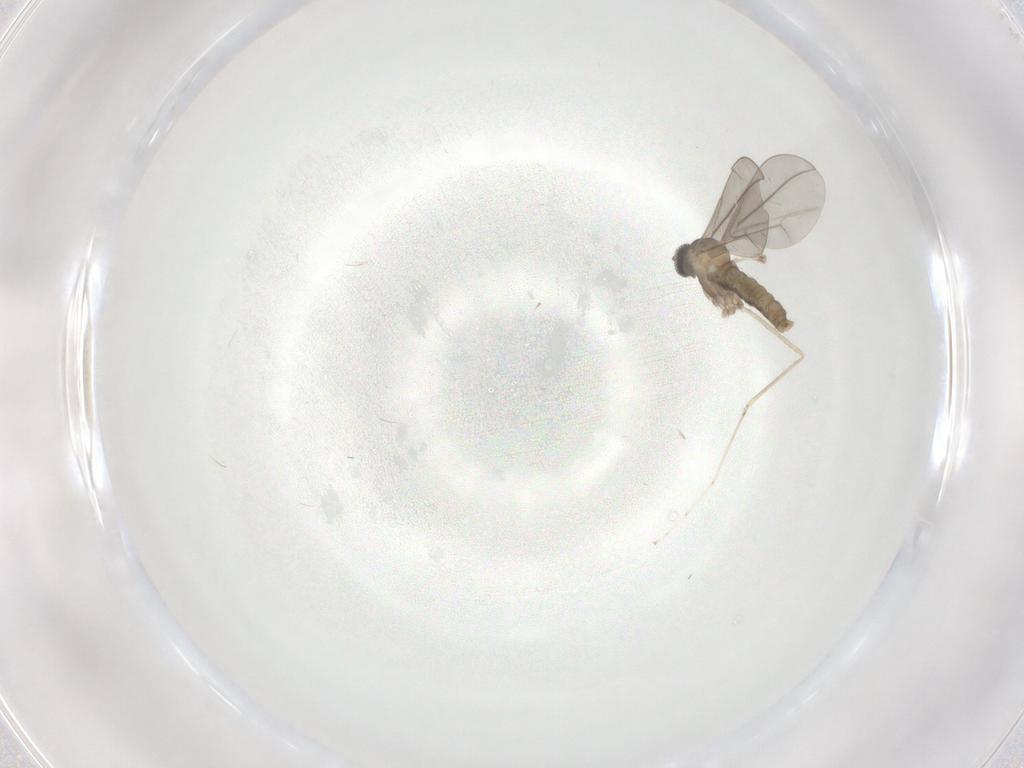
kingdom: Animalia
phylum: Arthropoda
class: Insecta
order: Diptera
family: Cecidomyiidae
